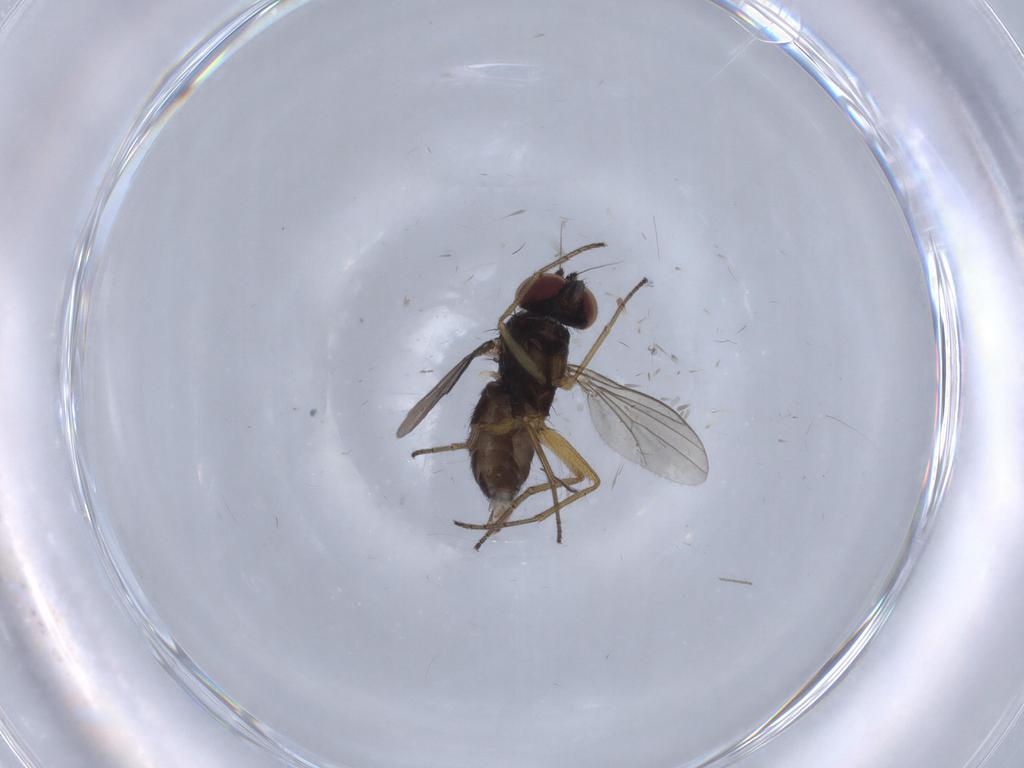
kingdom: Animalia
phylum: Arthropoda
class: Insecta
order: Diptera
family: Dolichopodidae
